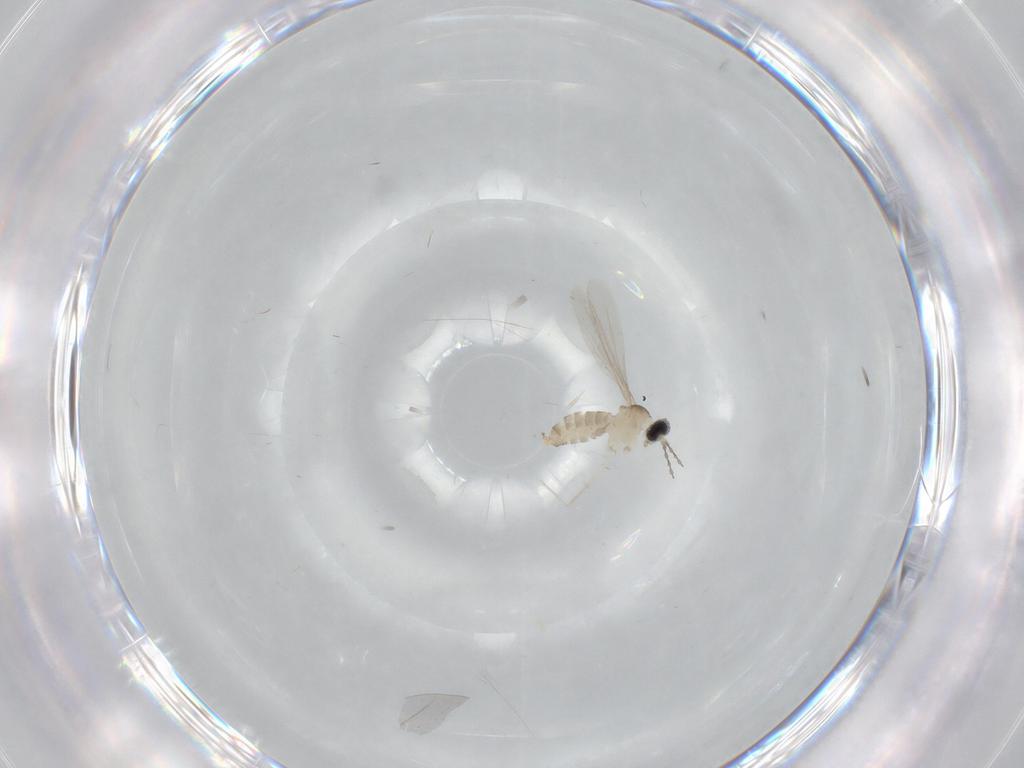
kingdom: Animalia
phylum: Arthropoda
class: Insecta
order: Diptera
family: Cecidomyiidae
